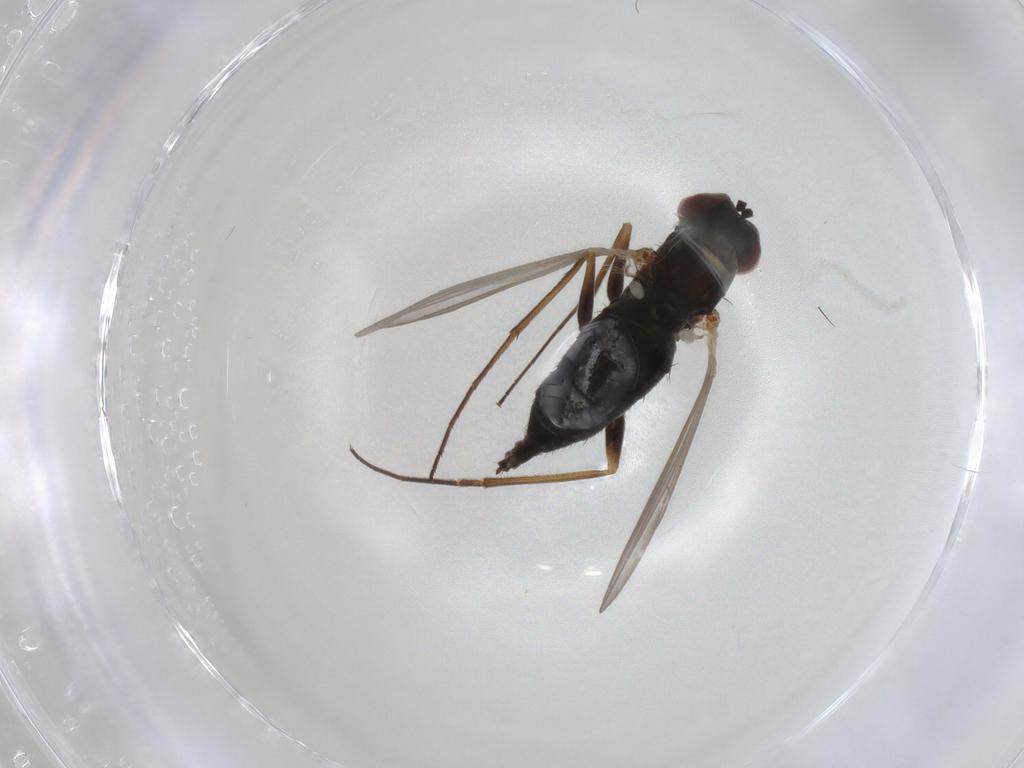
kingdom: Animalia
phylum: Arthropoda
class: Insecta
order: Diptera
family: Dolichopodidae
